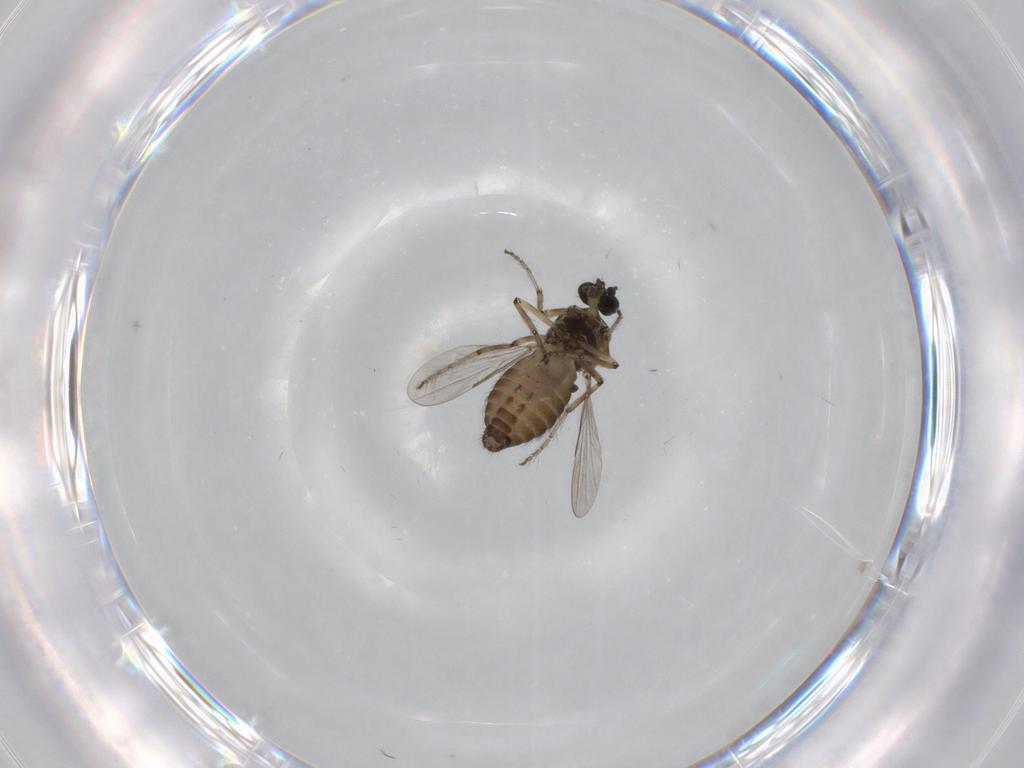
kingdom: Animalia
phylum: Arthropoda
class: Insecta
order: Diptera
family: Ceratopogonidae
